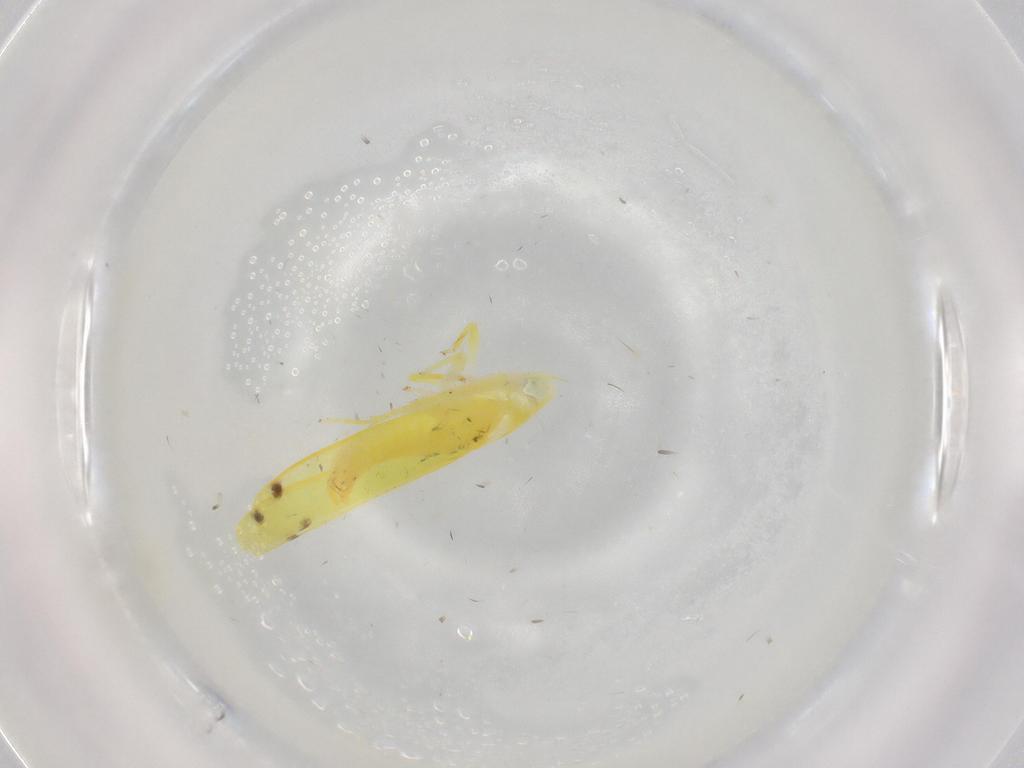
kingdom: Animalia
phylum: Arthropoda
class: Insecta
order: Hemiptera
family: Cicadellidae
